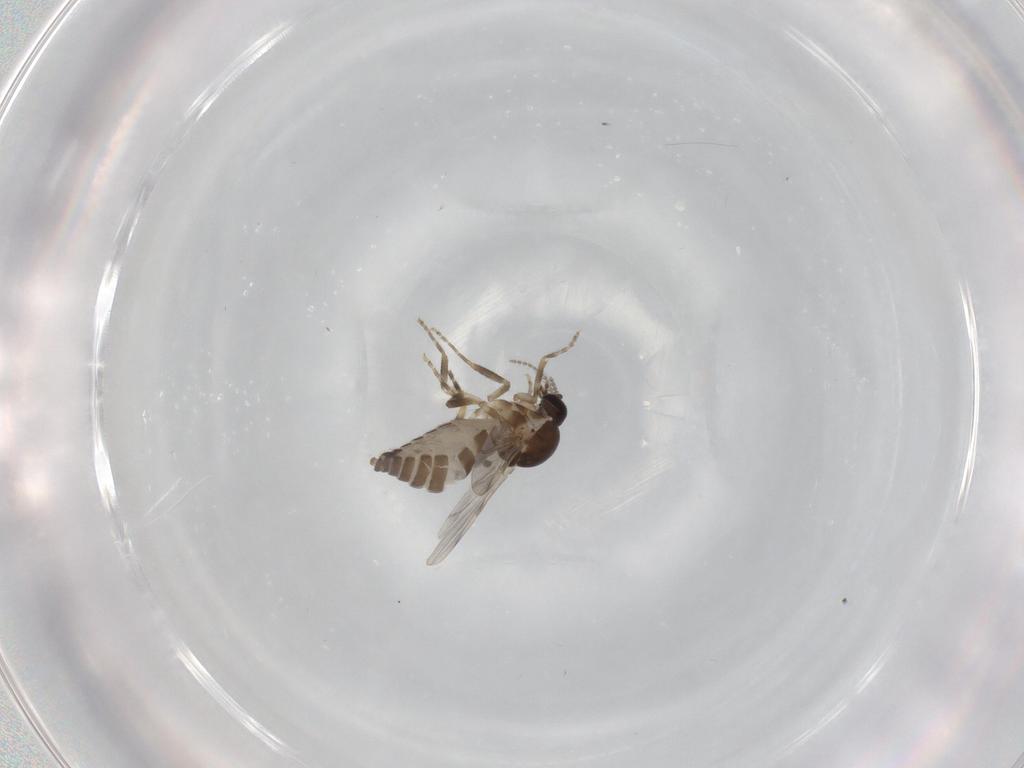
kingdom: Animalia
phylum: Arthropoda
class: Insecta
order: Diptera
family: Ceratopogonidae
